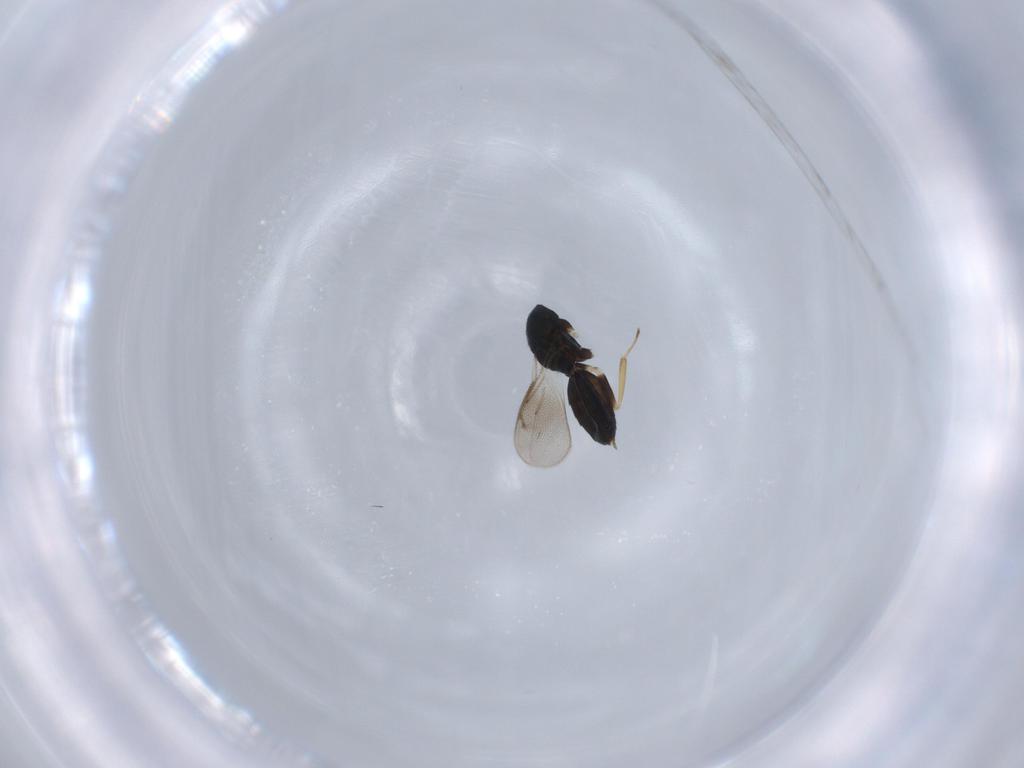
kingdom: Animalia
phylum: Arthropoda
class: Insecta
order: Hymenoptera
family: Eulophidae
